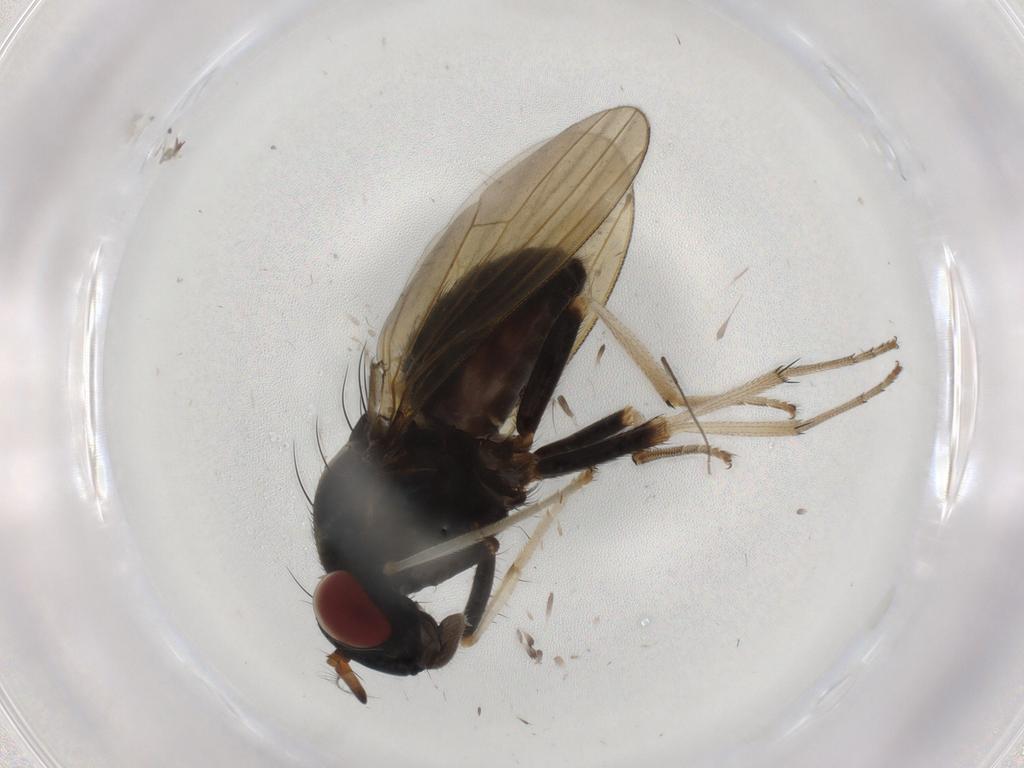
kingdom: Animalia
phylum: Arthropoda
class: Insecta
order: Diptera
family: Chironomidae
